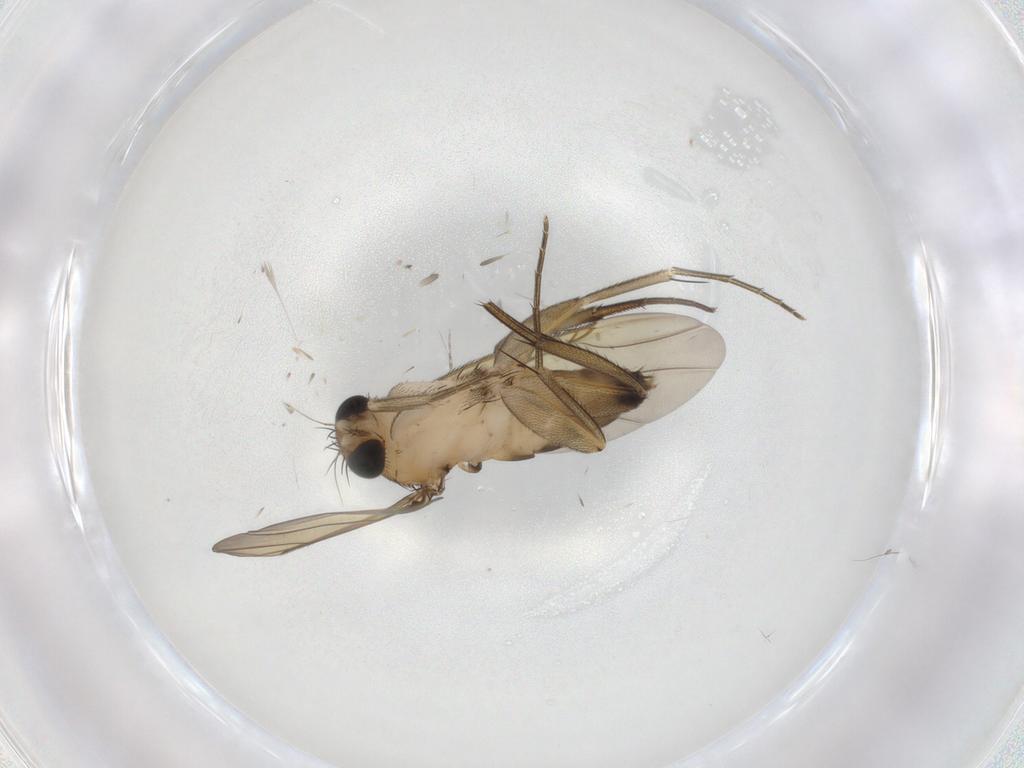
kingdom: Animalia
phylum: Arthropoda
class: Insecta
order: Diptera
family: Phoridae
